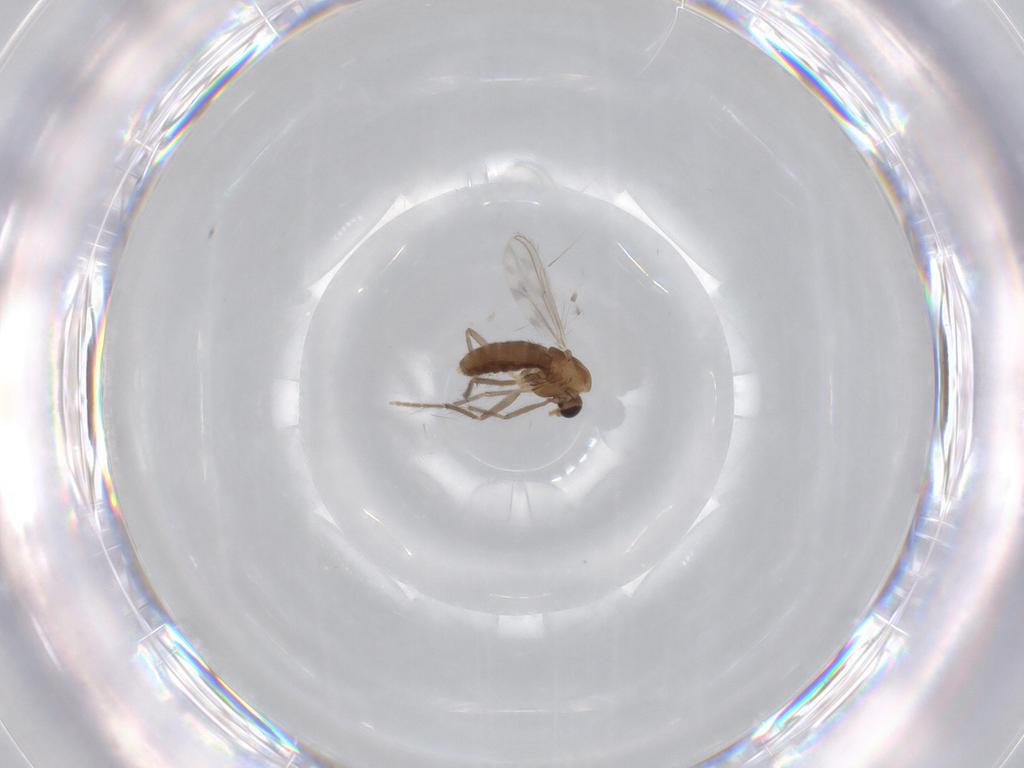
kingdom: Animalia
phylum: Arthropoda
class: Insecta
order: Diptera
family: Chironomidae
